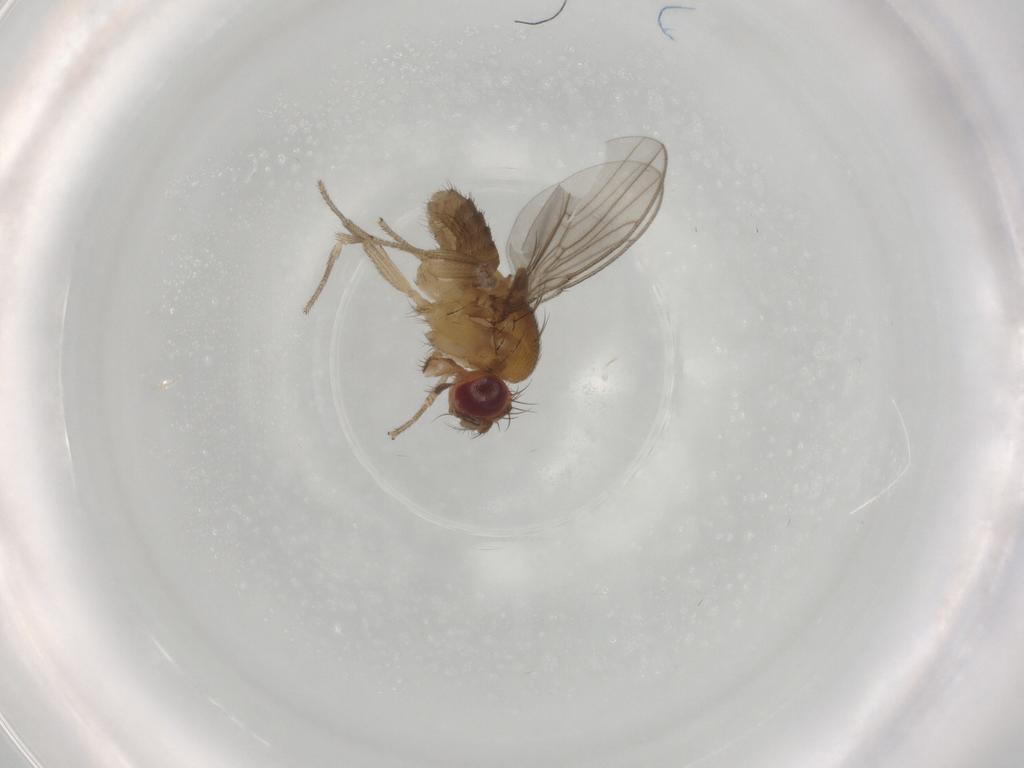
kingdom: Animalia
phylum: Arthropoda
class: Insecta
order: Diptera
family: Drosophilidae
